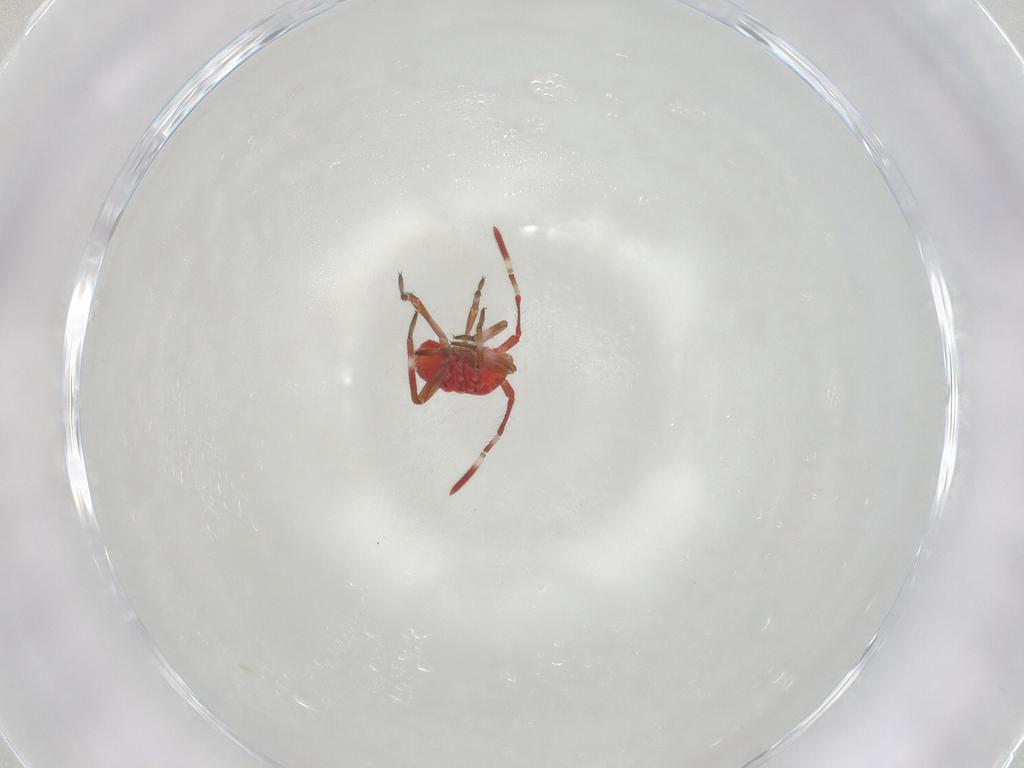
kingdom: Animalia
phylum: Arthropoda
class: Insecta
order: Hemiptera
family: Miridae
